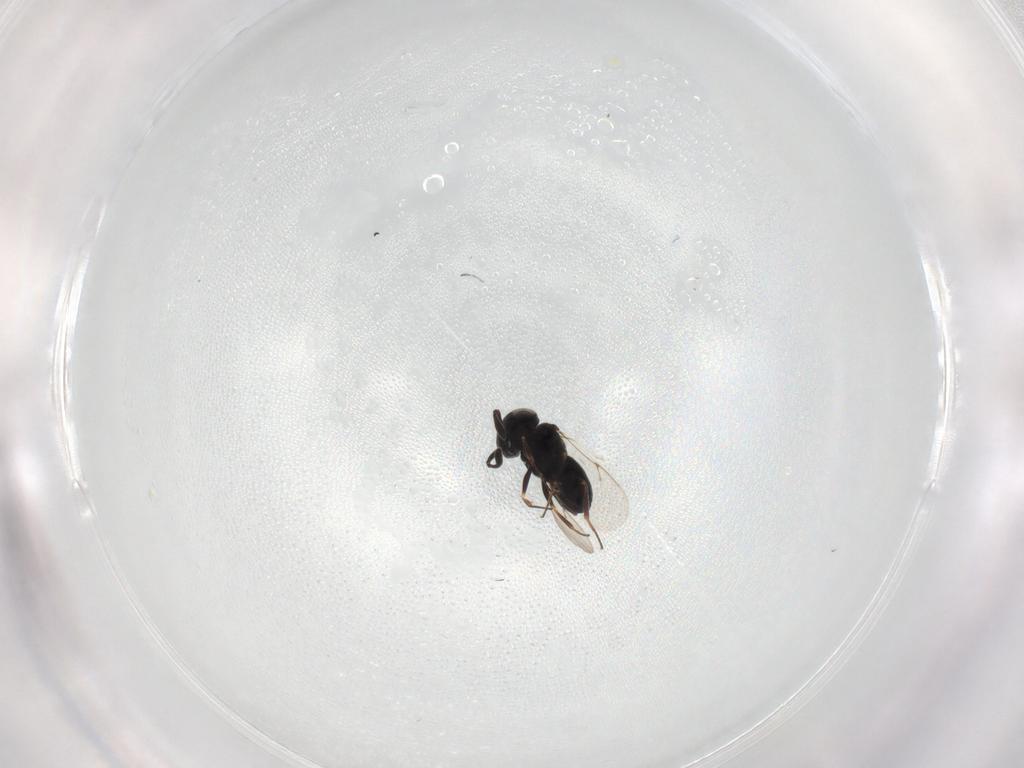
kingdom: Animalia
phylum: Arthropoda
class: Insecta
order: Hymenoptera
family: Scelionidae
